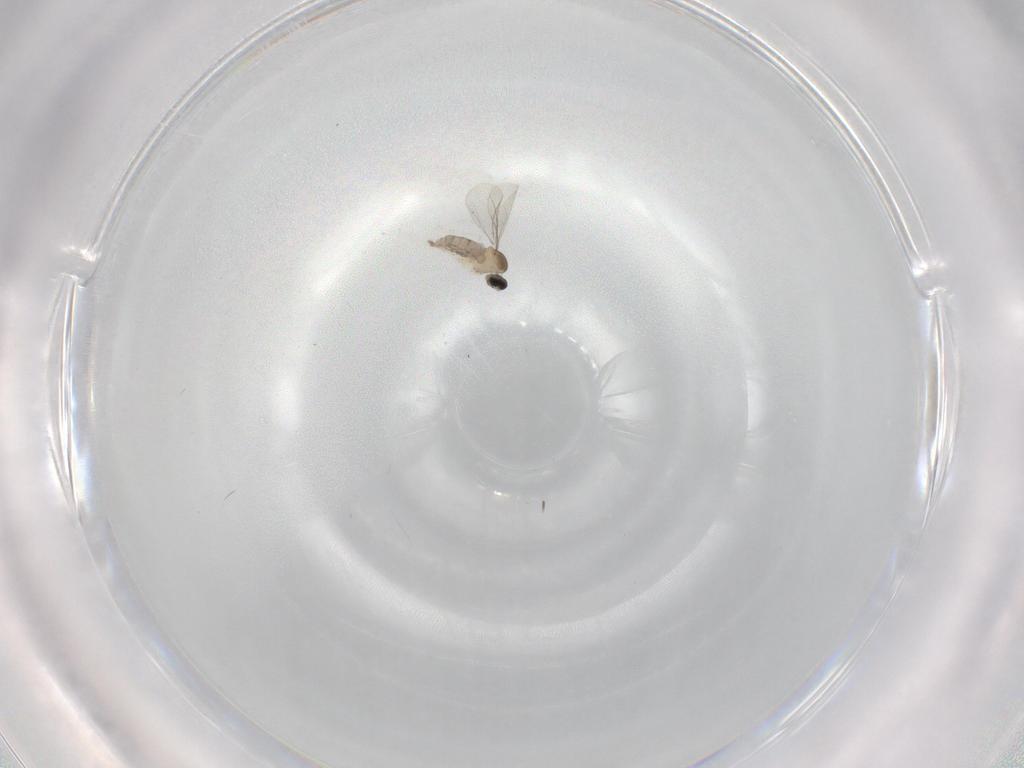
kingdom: Animalia
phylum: Arthropoda
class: Insecta
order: Diptera
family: Cecidomyiidae
